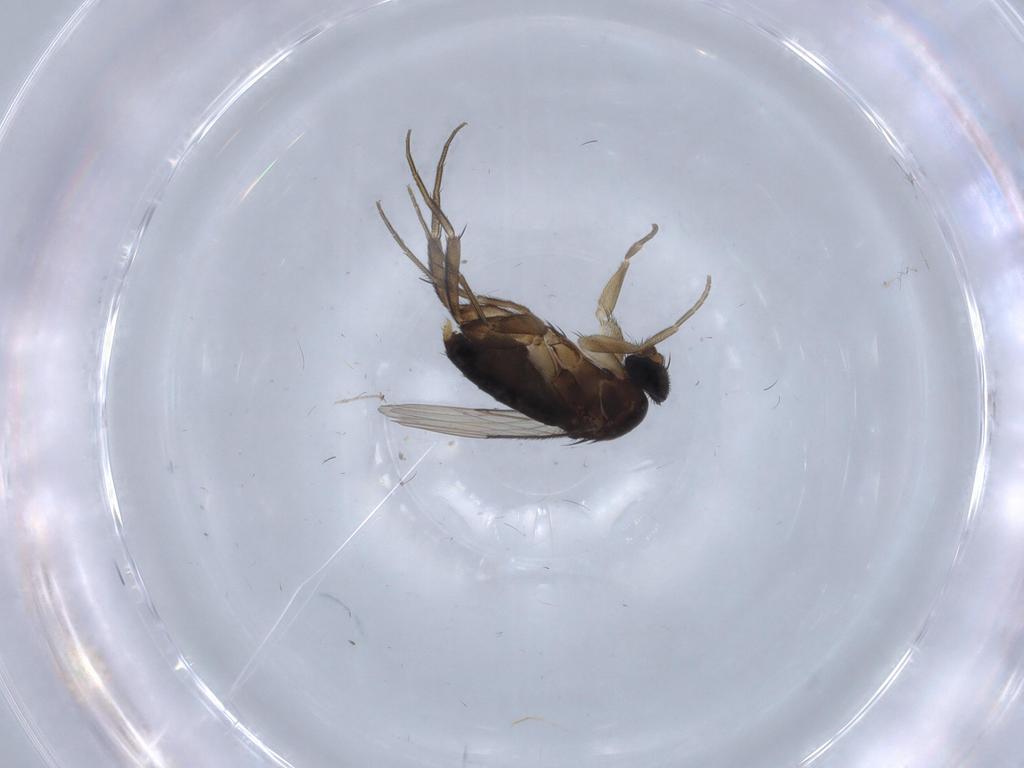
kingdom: Animalia
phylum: Arthropoda
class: Insecta
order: Diptera
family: Phoridae
